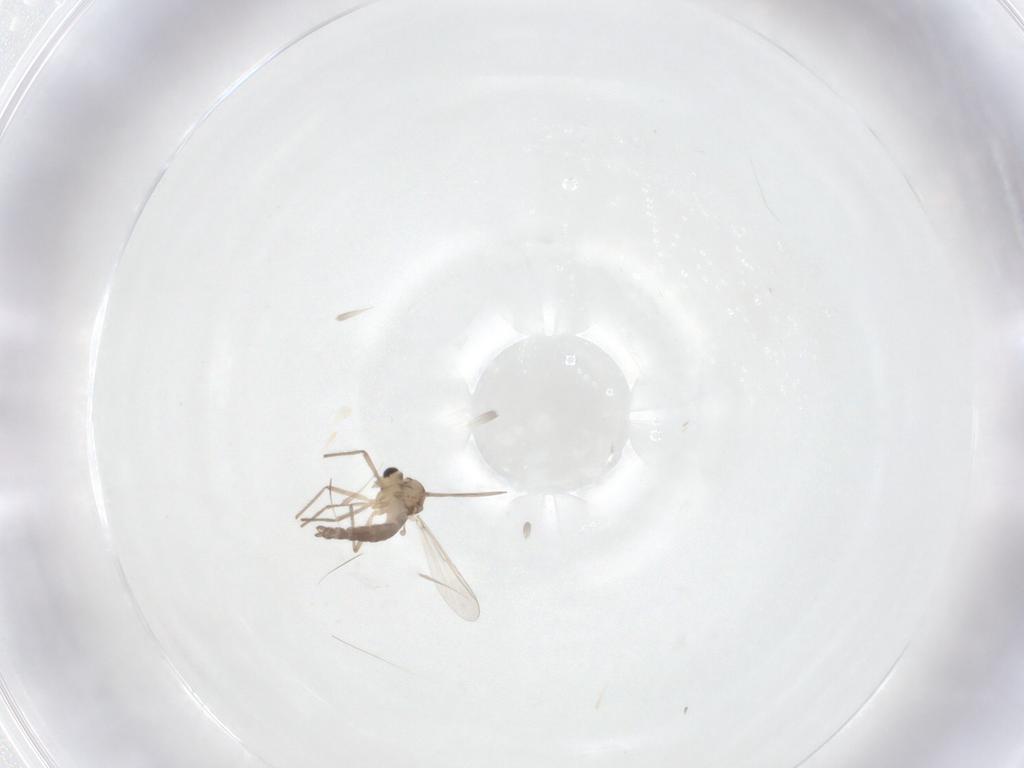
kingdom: Animalia
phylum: Arthropoda
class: Insecta
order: Diptera
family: Chironomidae
